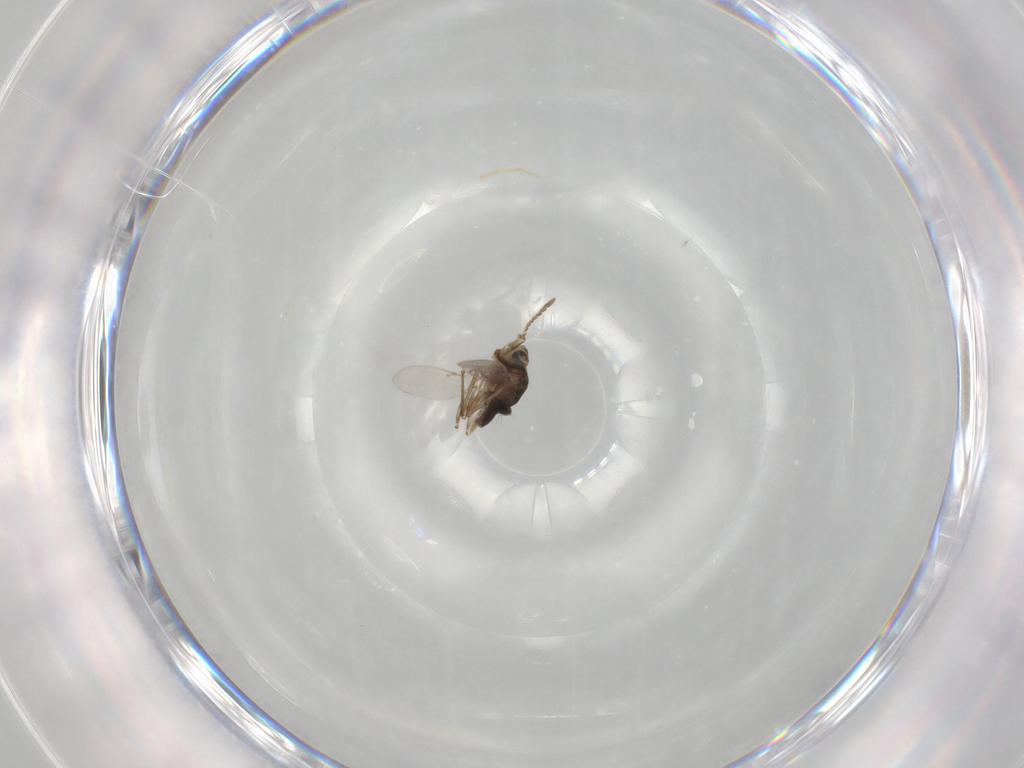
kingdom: Animalia
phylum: Arthropoda
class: Insecta
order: Hymenoptera
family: Encyrtidae
